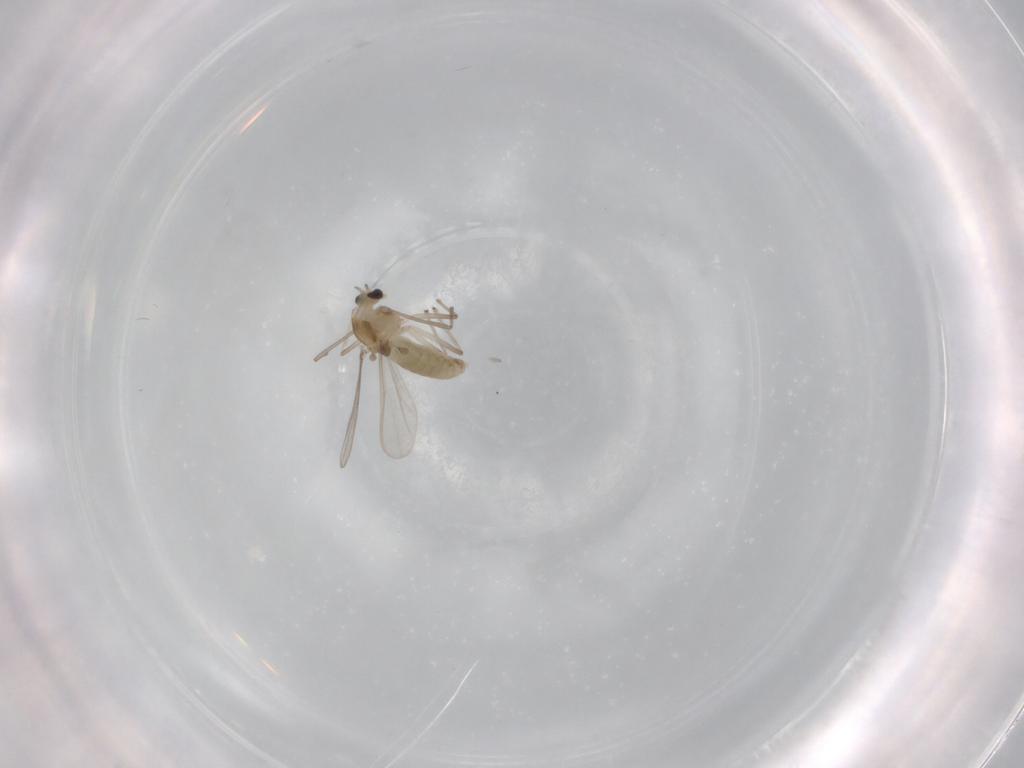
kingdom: Animalia
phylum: Arthropoda
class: Insecta
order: Diptera
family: Chironomidae
